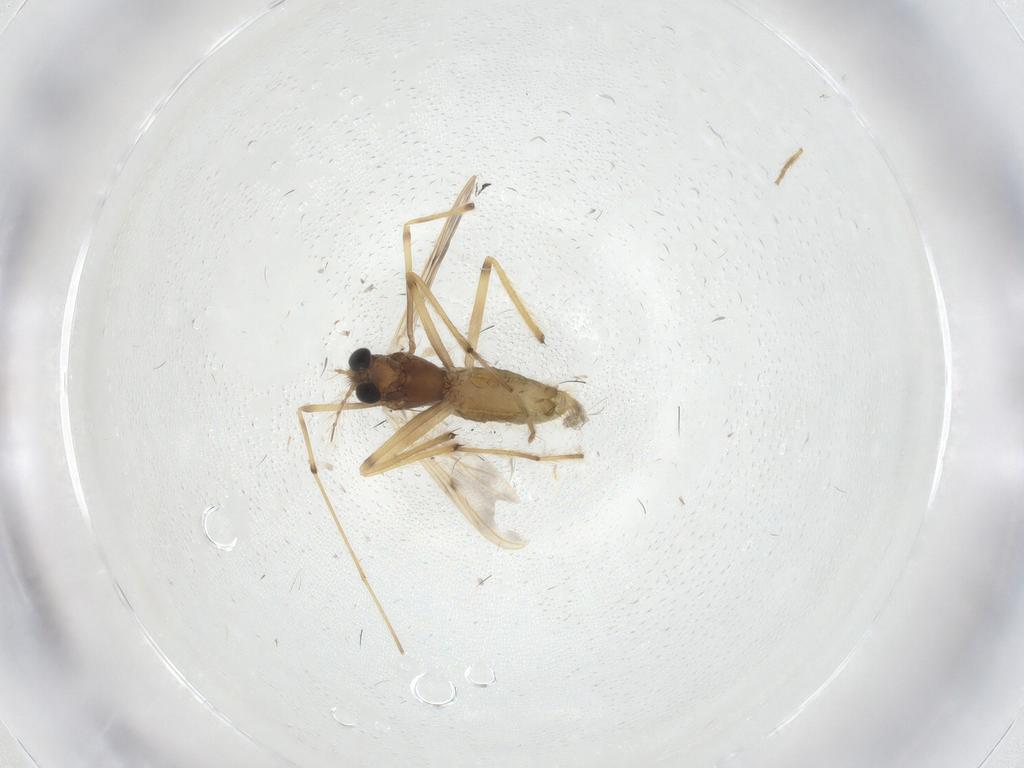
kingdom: Animalia
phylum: Arthropoda
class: Insecta
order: Diptera
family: Chironomidae
